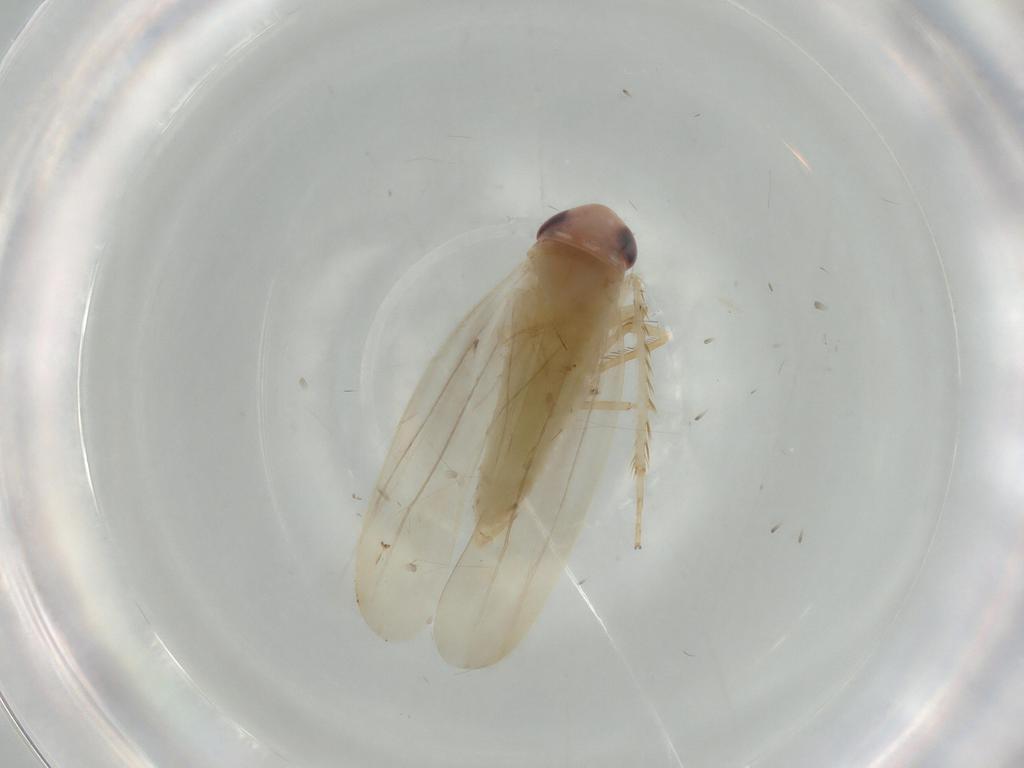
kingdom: Animalia
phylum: Arthropoda
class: Insecta
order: Hemiptera
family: Cicadellidae
